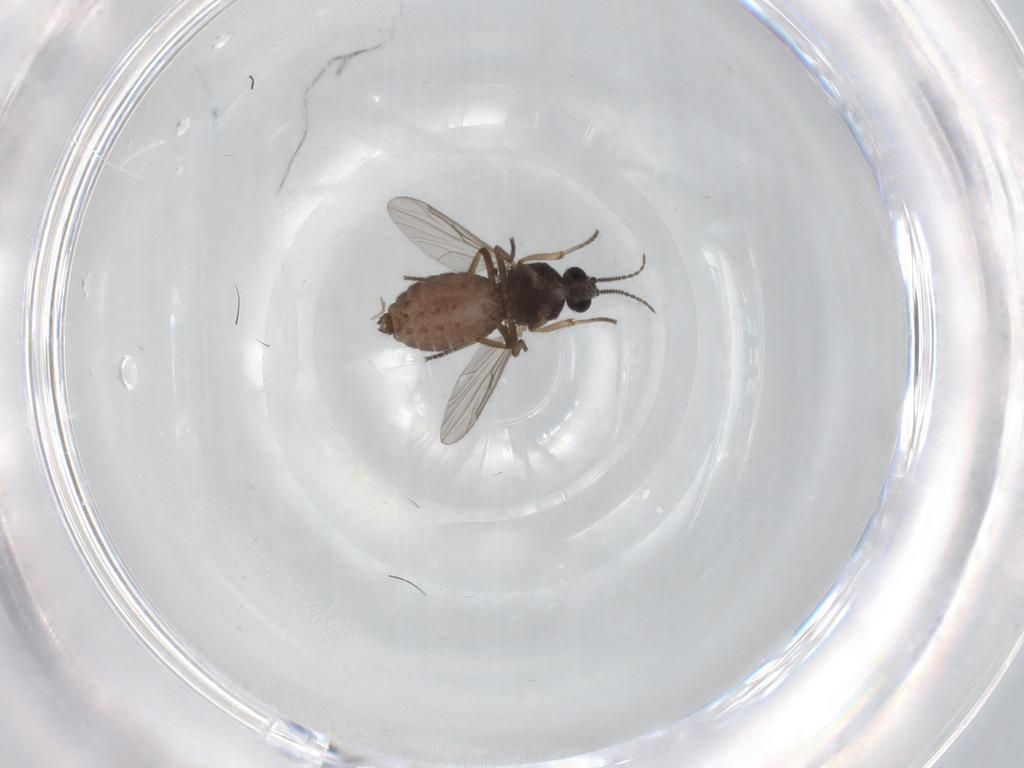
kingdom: Animalia
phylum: Arthropoda
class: Insecta
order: Diptera
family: Ceratopogonidae
